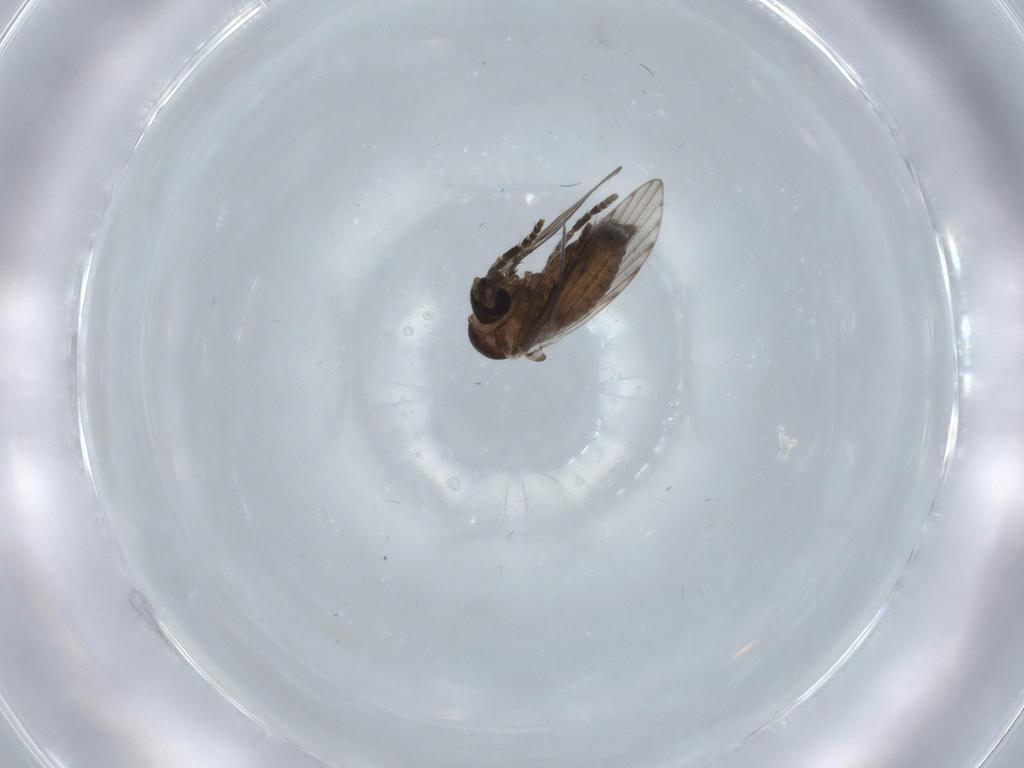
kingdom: Animalia
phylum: Arthropoda
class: Insecta
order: Diptera
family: Psychodidae
